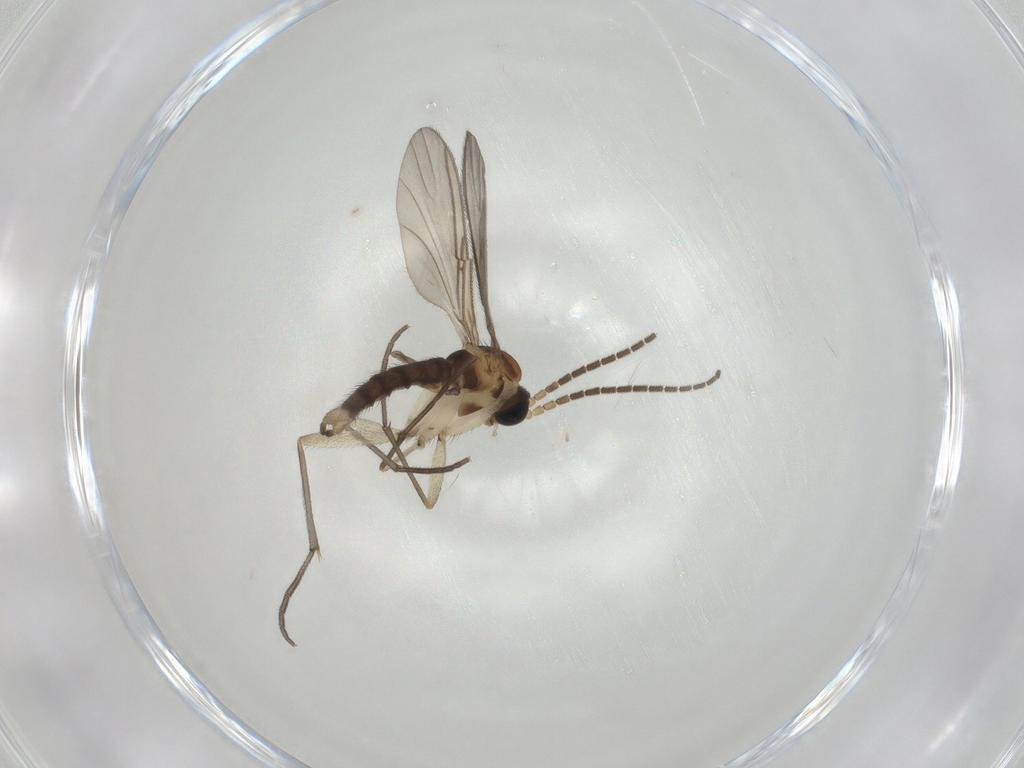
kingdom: Animalia
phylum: Arthropoda
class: Insecta
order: Diptera
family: Sciaridae
